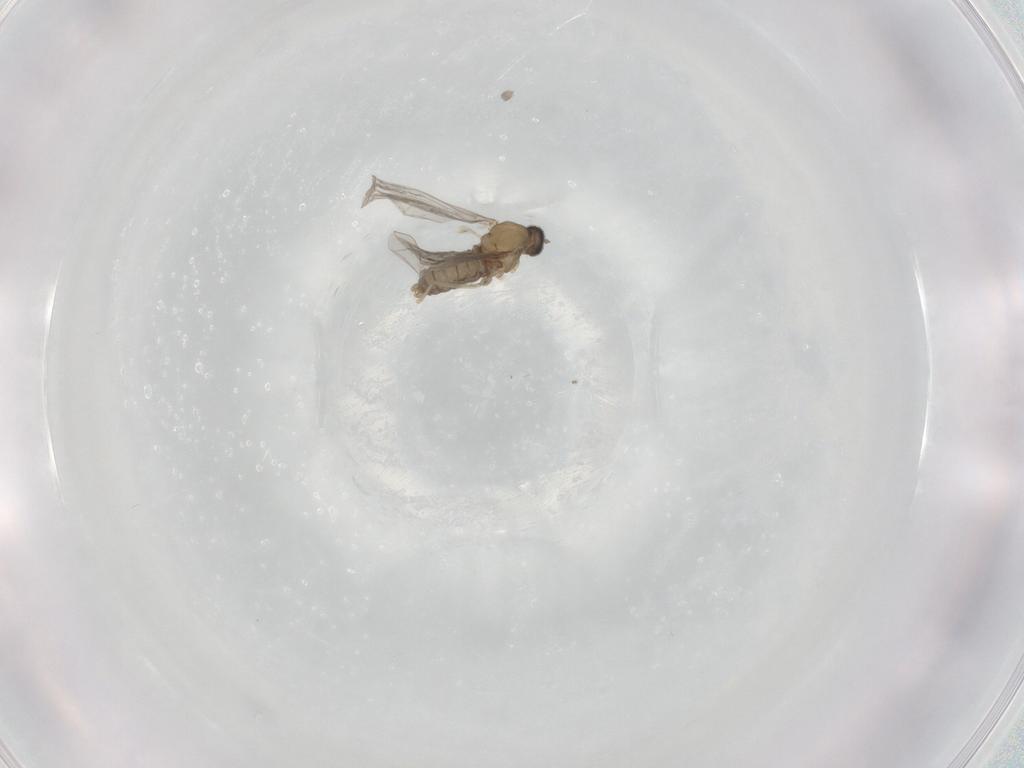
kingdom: Animalia
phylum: Arthropoda
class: Insecta
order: Diptera
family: Cecidomyiidae
